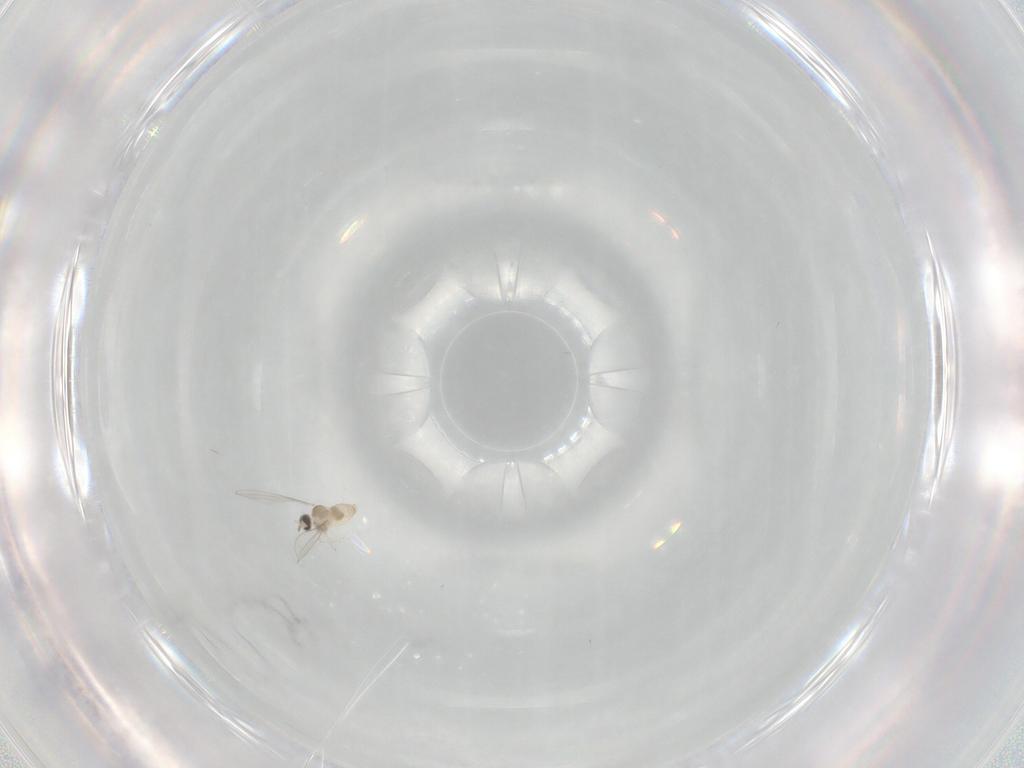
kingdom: Animalia
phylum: Arthropoda
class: Insecta
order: Diptera
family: Cecidomyiidae
